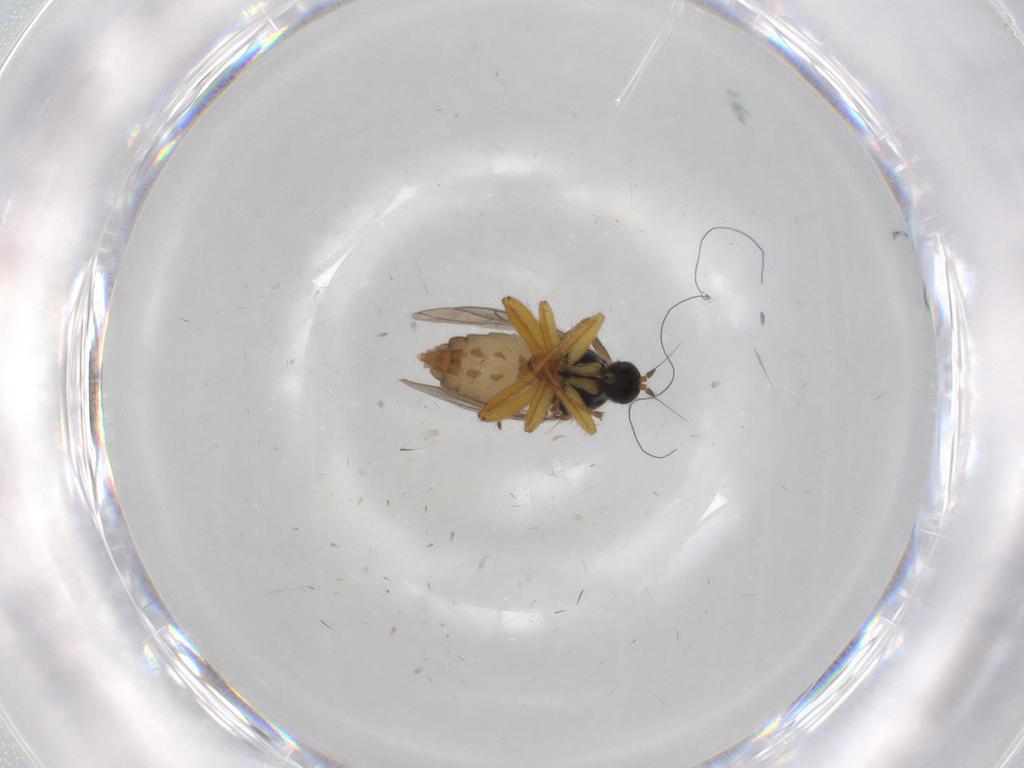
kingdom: Animalia
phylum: Arthropoda
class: Insecta
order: Diptera
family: Hybotidae
